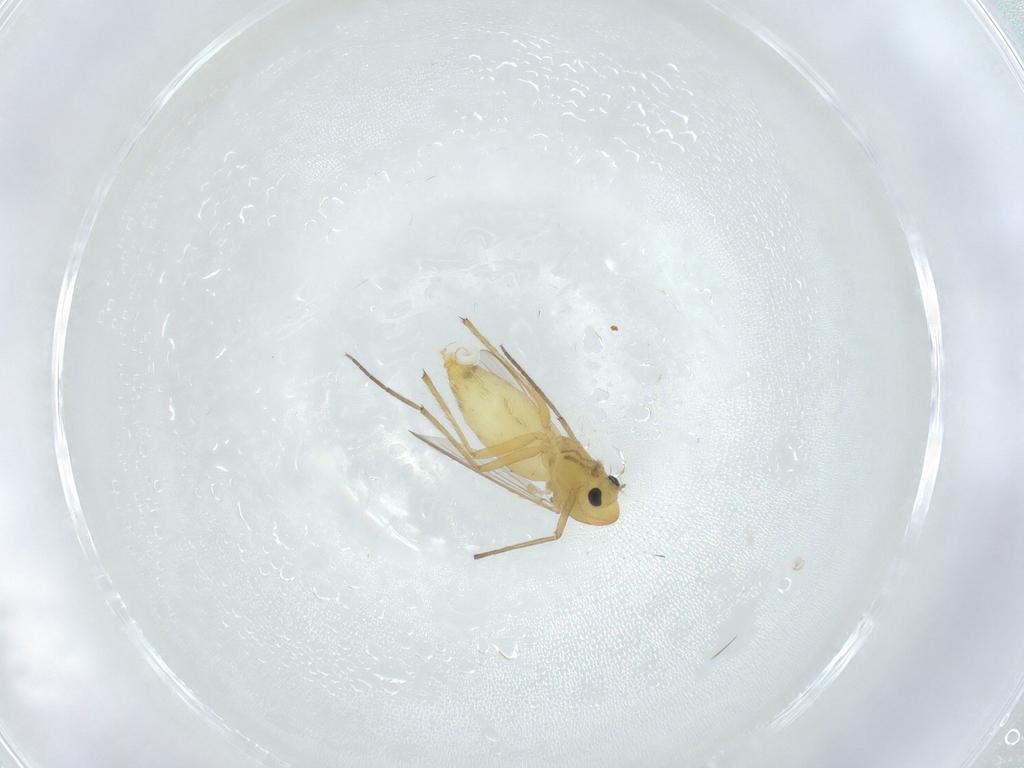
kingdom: Animalia
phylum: Arthropoda
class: Insecta
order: Diptera
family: Chironomidae
